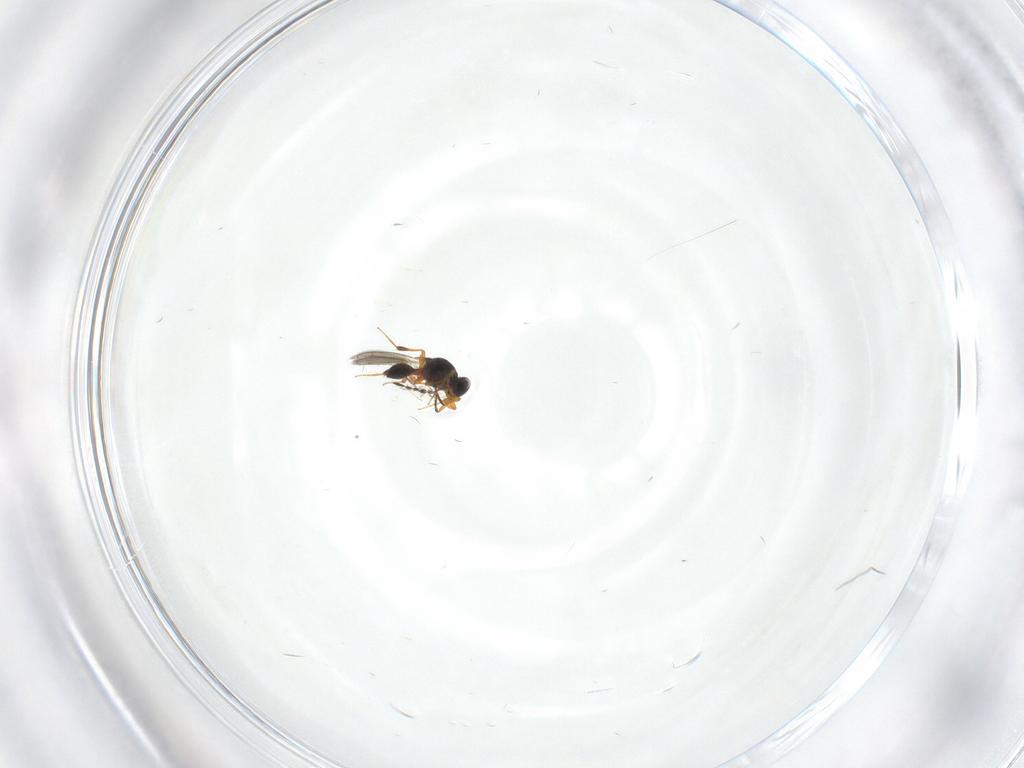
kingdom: Animalia
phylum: Arthropoda
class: Insecta
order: Hymenoptera
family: Platygastridae
